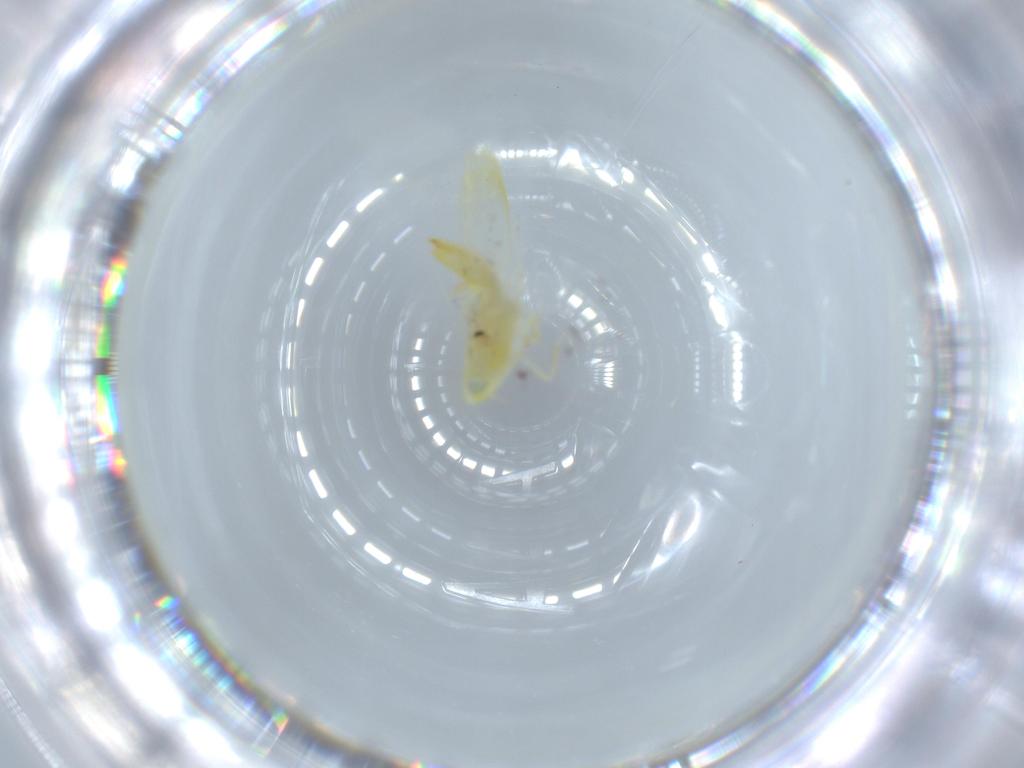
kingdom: Animalia
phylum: Arthropoda
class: Insecta
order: Hemiptera
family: Cicadellidae
